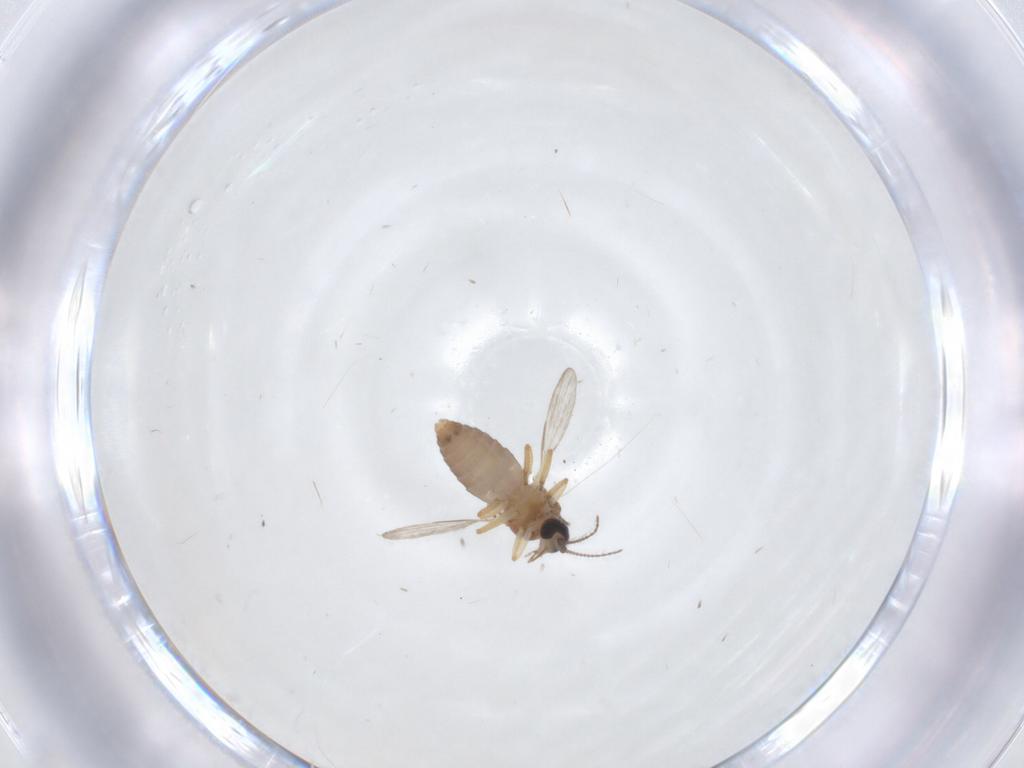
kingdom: Animalia
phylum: Arthropoda
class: Insecta
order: Diptera
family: Ceratopogonidae
